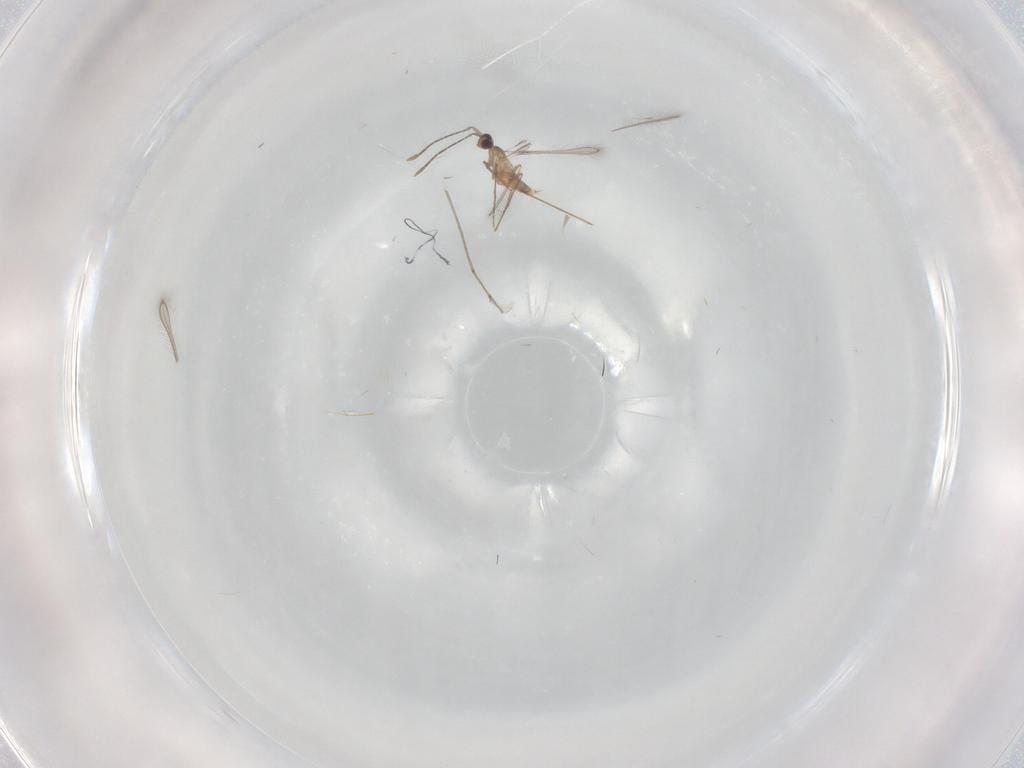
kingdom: Animalia
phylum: Arthropoda
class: Insecta
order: Hymenoptera
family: Mymaridae
